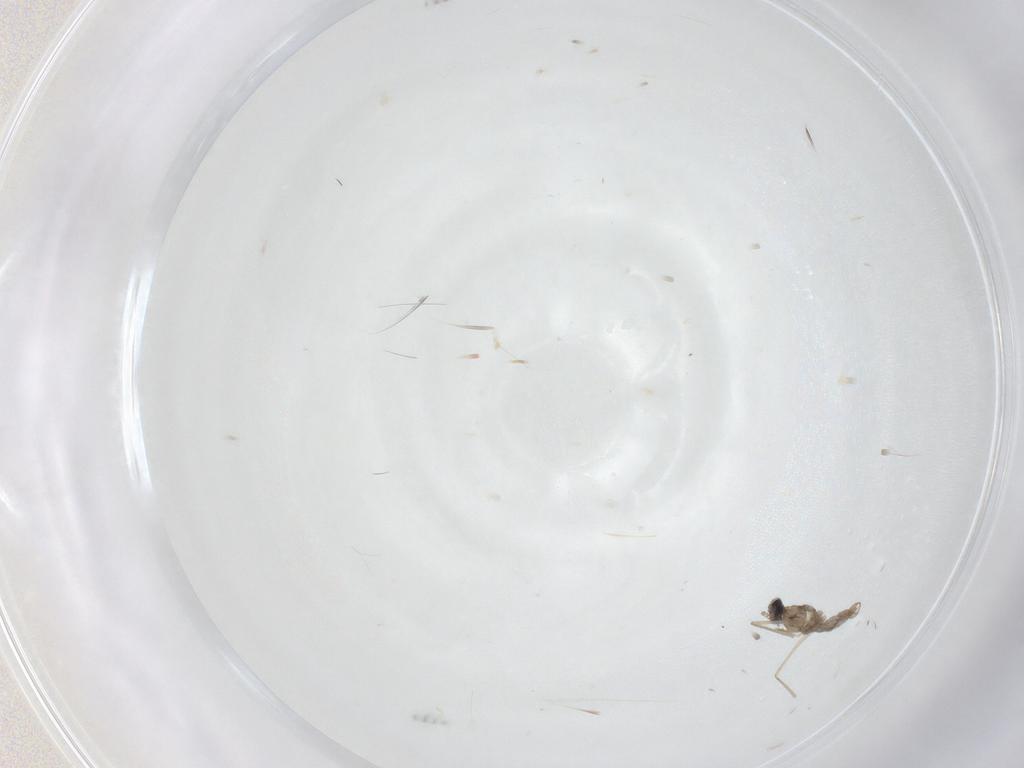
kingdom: Animalia
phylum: Arthropoda
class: Insecta
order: Diptera
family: Cecidomyiidae
